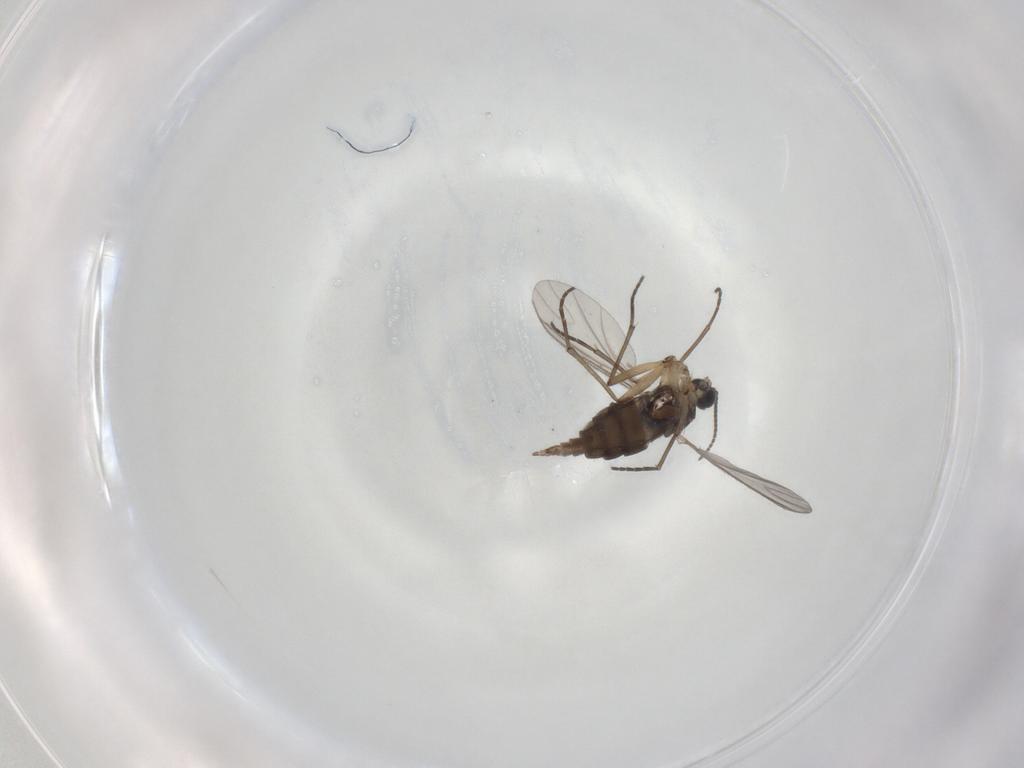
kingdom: Animalia
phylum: Arthropoda
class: Insecta
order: Diptera
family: Sciaridae
